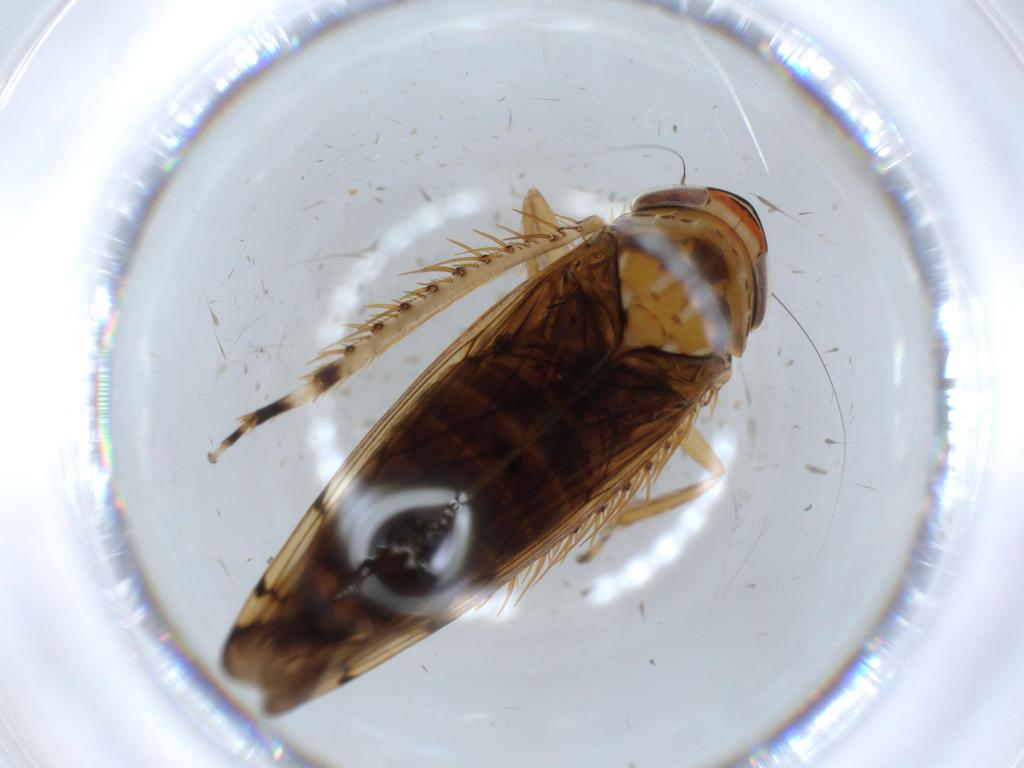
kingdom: Animalia
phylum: Arthropoda
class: Insecta
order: Hemiptera
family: Cicadellidae
